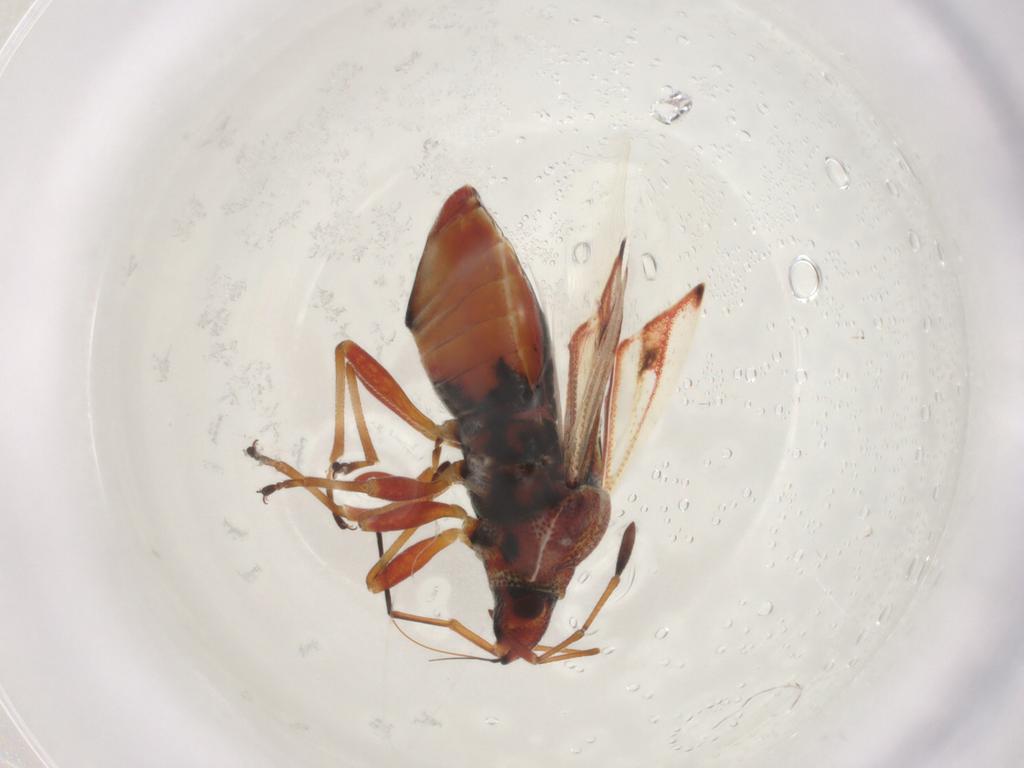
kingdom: Animalia
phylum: Arthropoda
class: Insecta
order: Hemiptera
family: Lygaeidae
